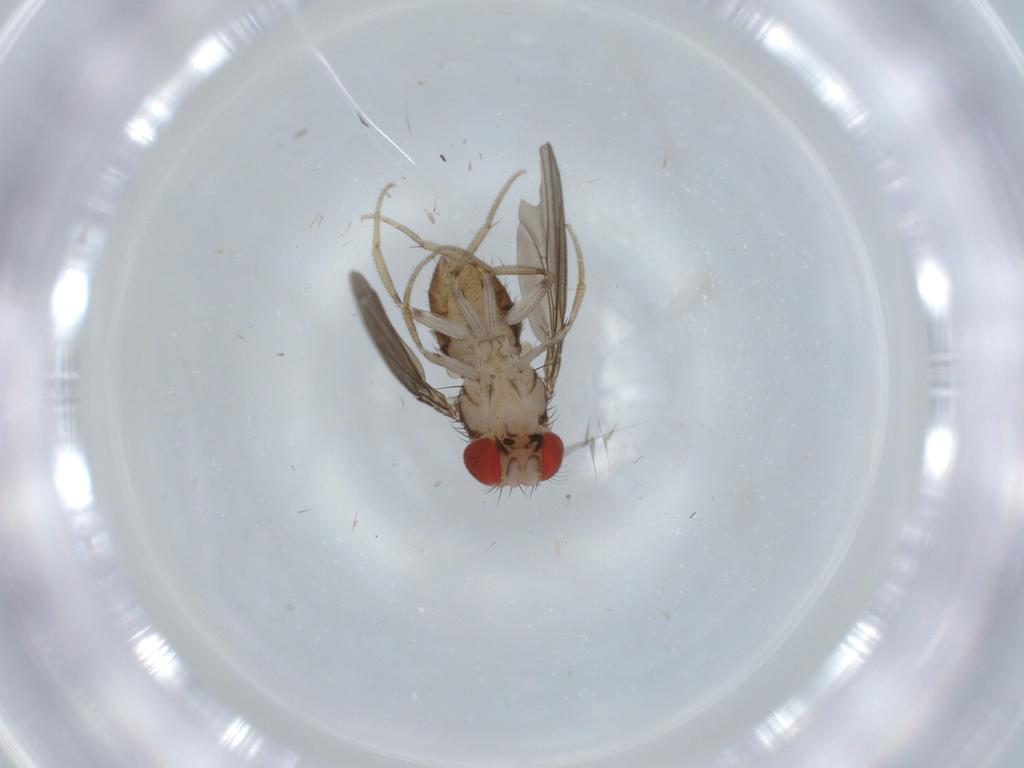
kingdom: Animalia
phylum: Arthropoda
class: Insecta
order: Diptera
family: Drosophilidae
